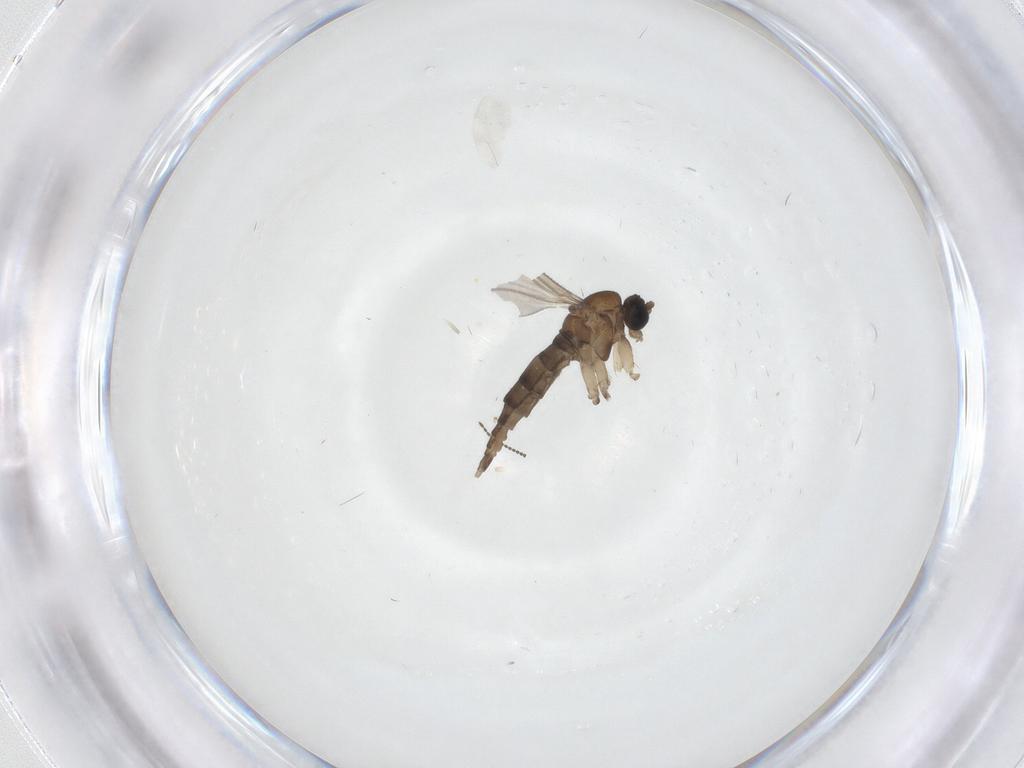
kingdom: Animalia
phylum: Arthropoda
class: Insecta
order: Diptera
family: Ceratopogonidae
